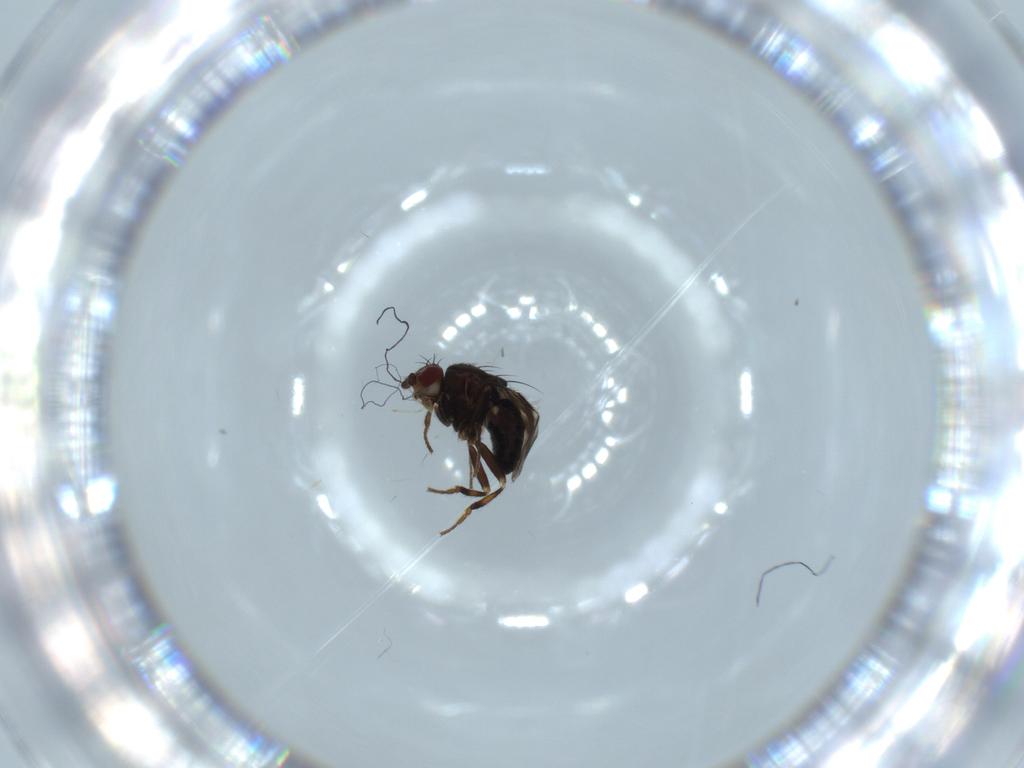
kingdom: Animalia
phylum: Arthropoda
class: Insecta
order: Diptera
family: Sphaeroceridae
